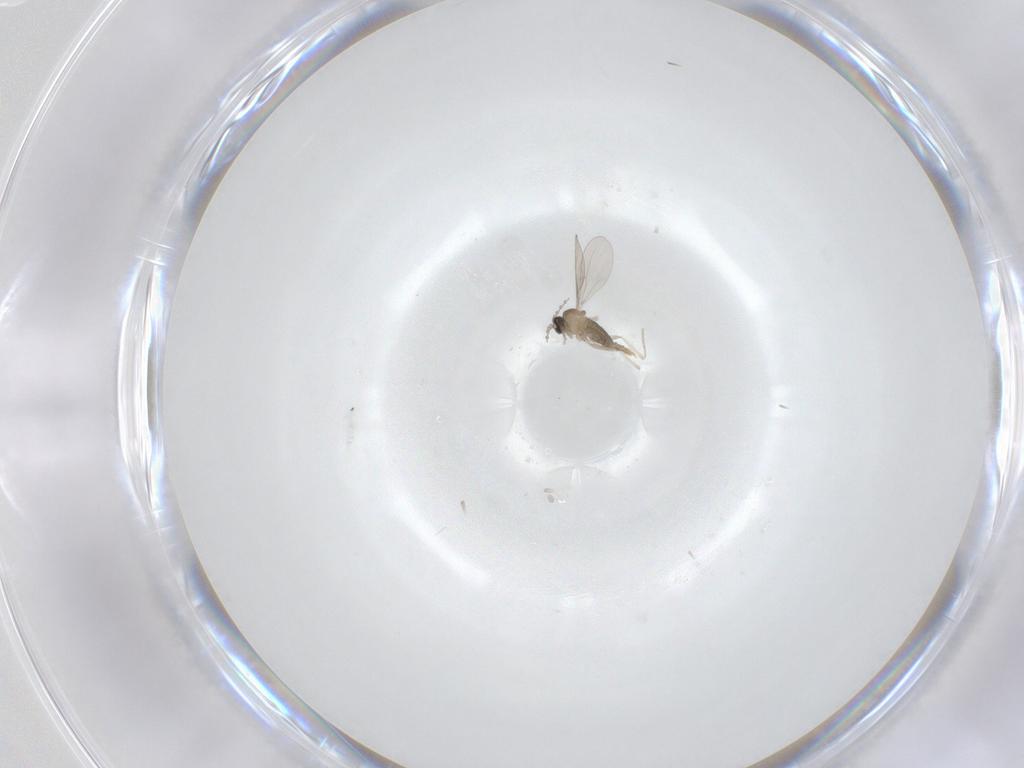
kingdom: Animalia
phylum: Arthropoda
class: Insecta
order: Diptera
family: Cecidomyiidae
